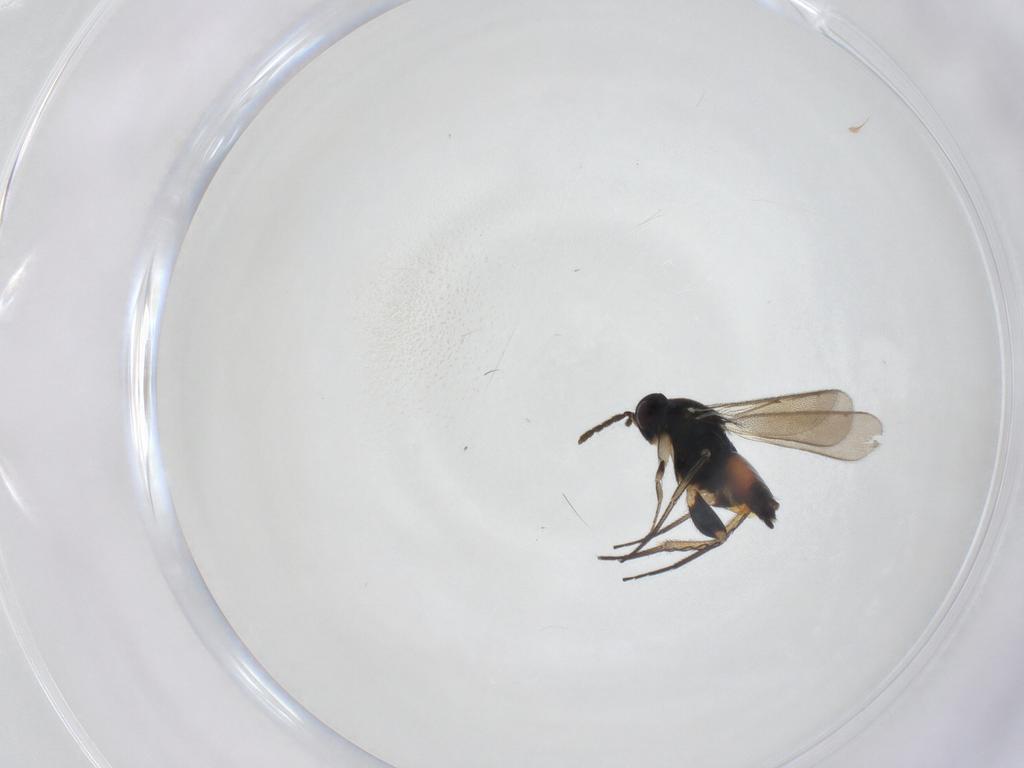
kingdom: Animalia
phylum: Arthropoda
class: Insecta
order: Hymenoptera
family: Eulophidae
